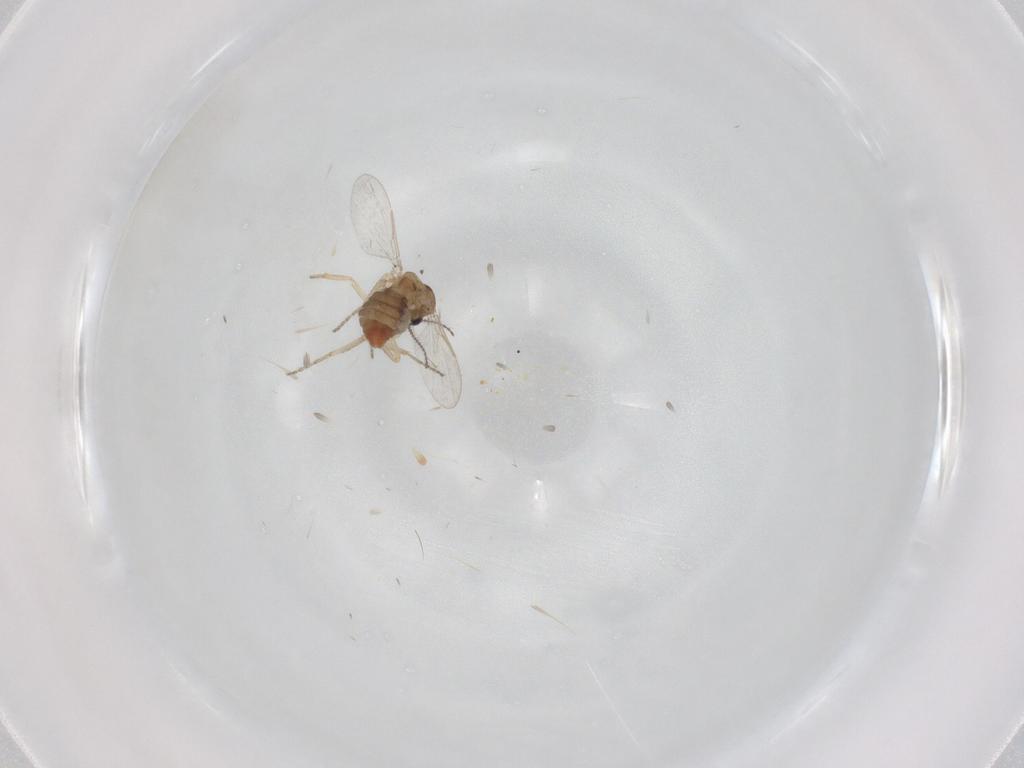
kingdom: Animalia
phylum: Arthropoda
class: Insecta
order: Diptera
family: Ceratopogonidae
